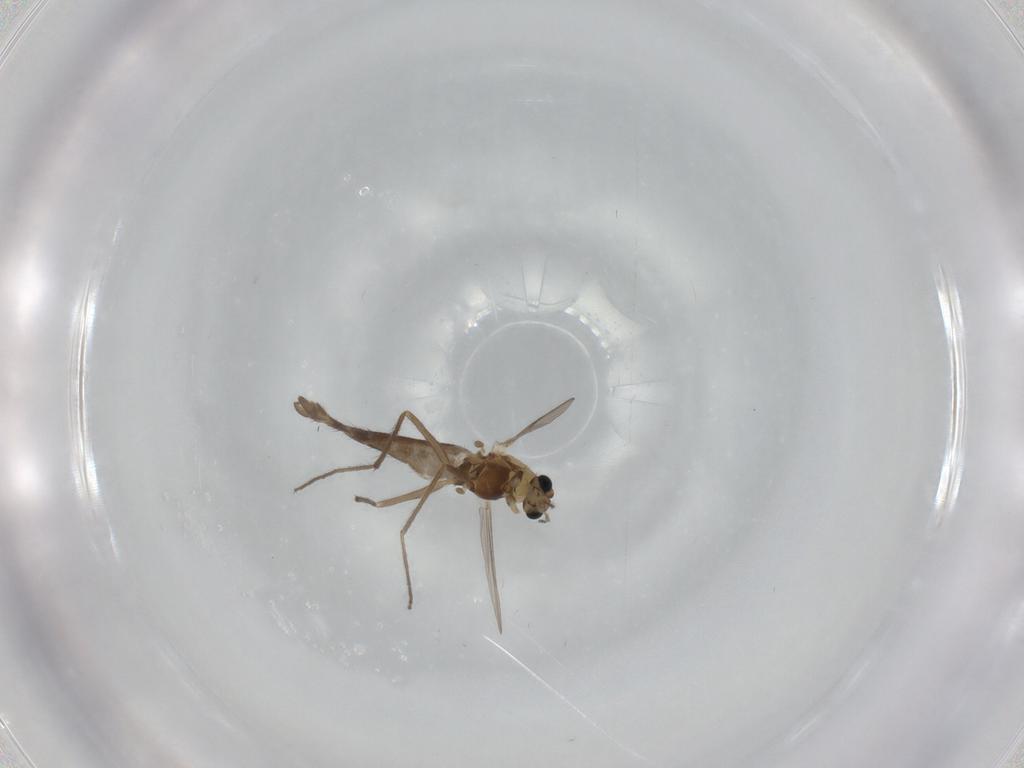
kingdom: Animalia
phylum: Arthropoda
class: Insecta
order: Diptera
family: Chironomidae
